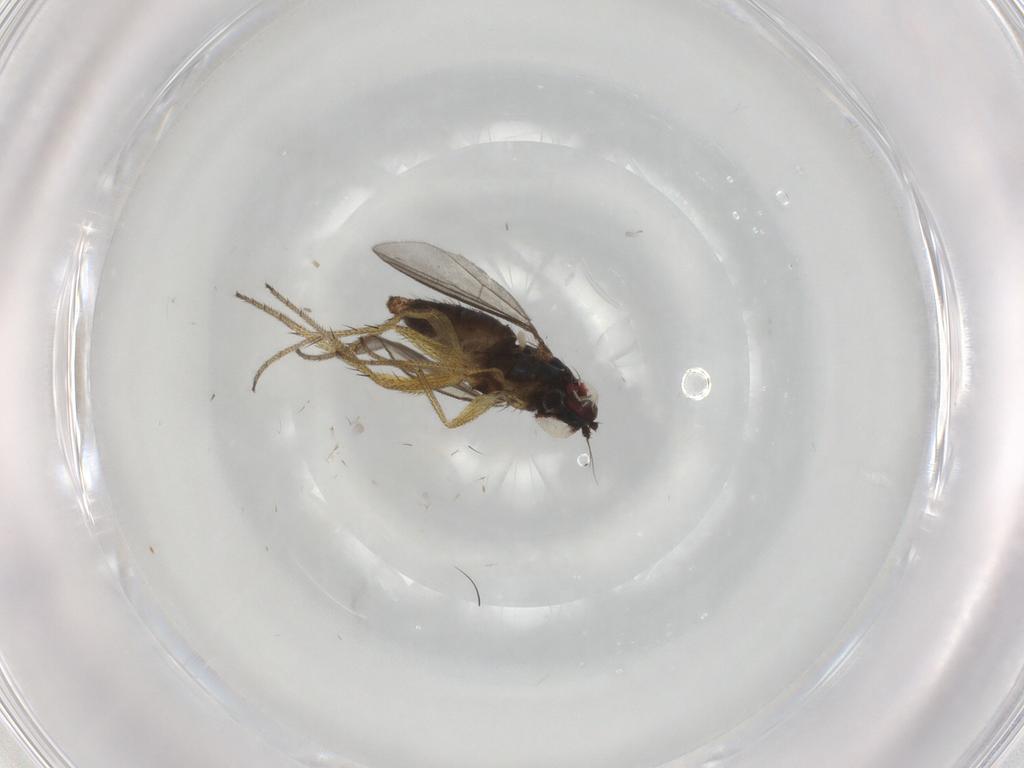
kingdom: Animalia
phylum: Arthropoda
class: Insecta
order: Diptera
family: Dolichopodidae
